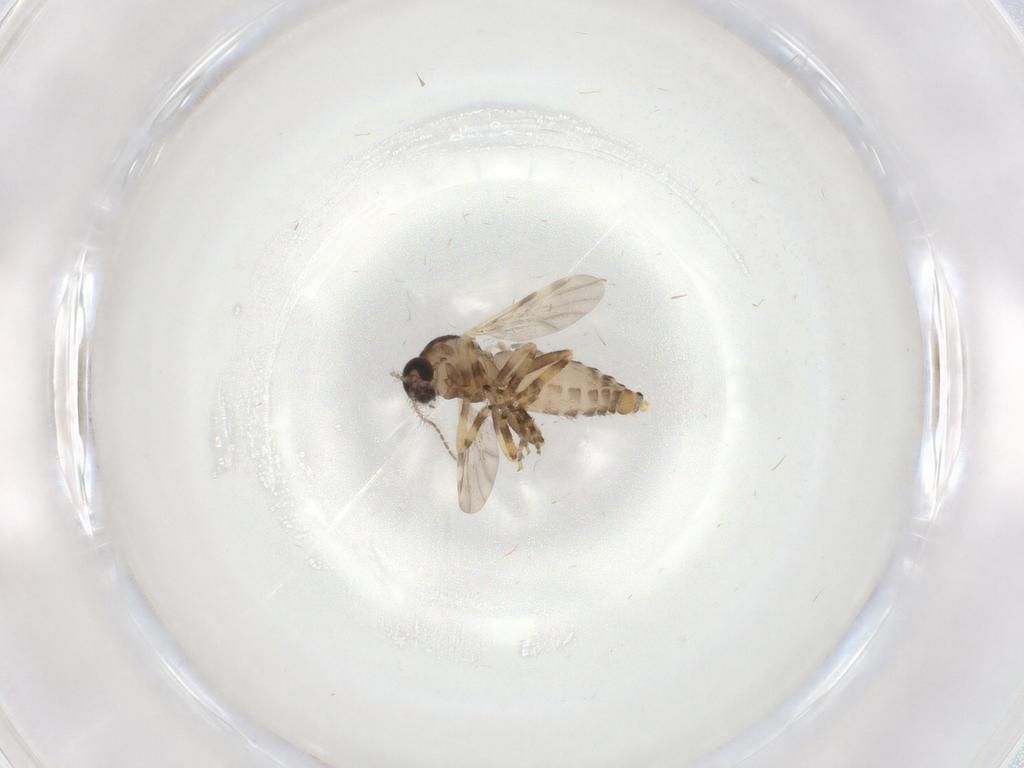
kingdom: Animalia
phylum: Arthropoda
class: Insecta
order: Diptera
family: Ceratopogonidae
